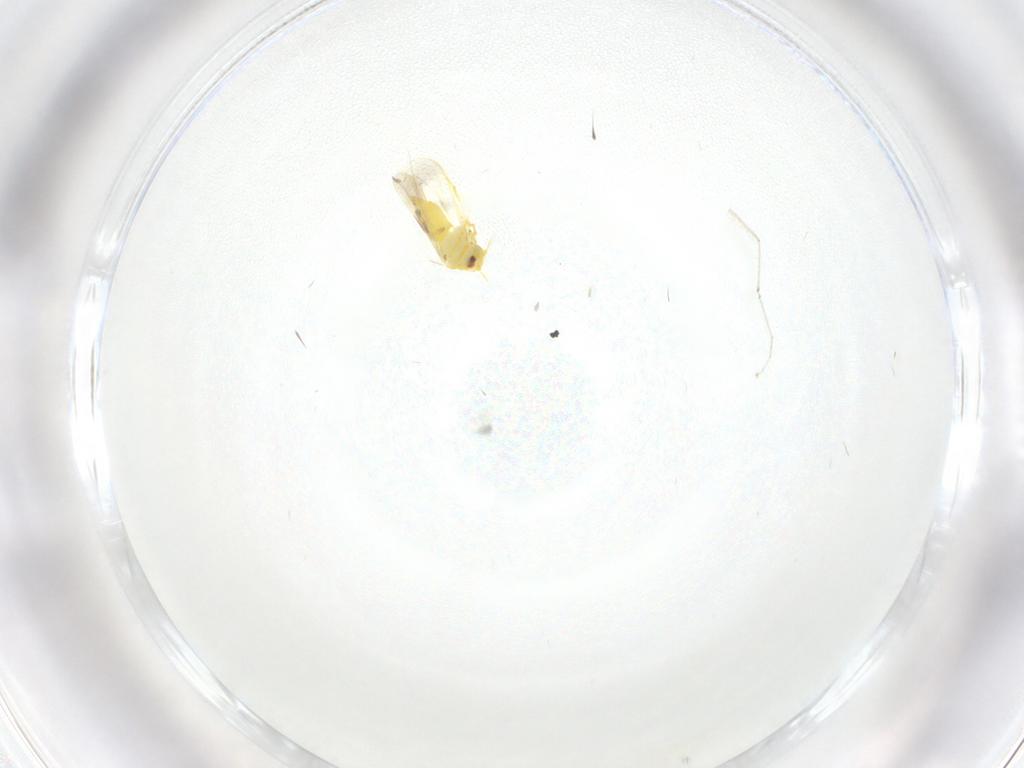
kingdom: Animalia
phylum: Arthropoda
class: Insecta
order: Hemiptera
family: Aleyrodidae
